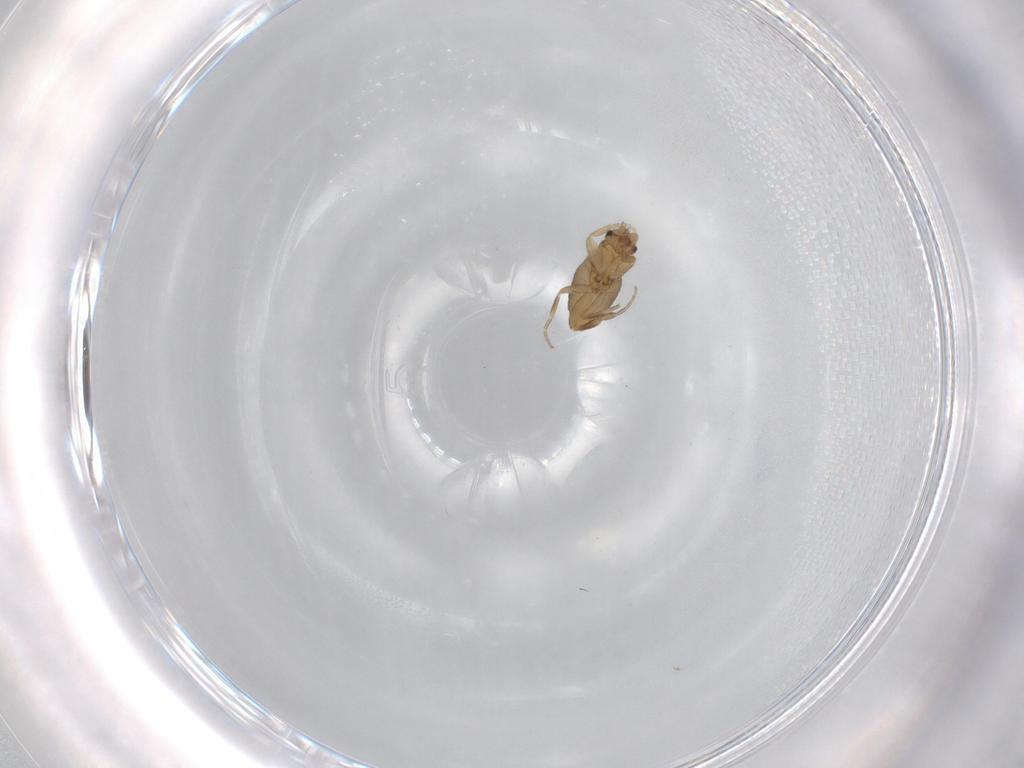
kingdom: Animalia
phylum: Arthropoda
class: Insecta
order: Diptera
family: Phoridae
